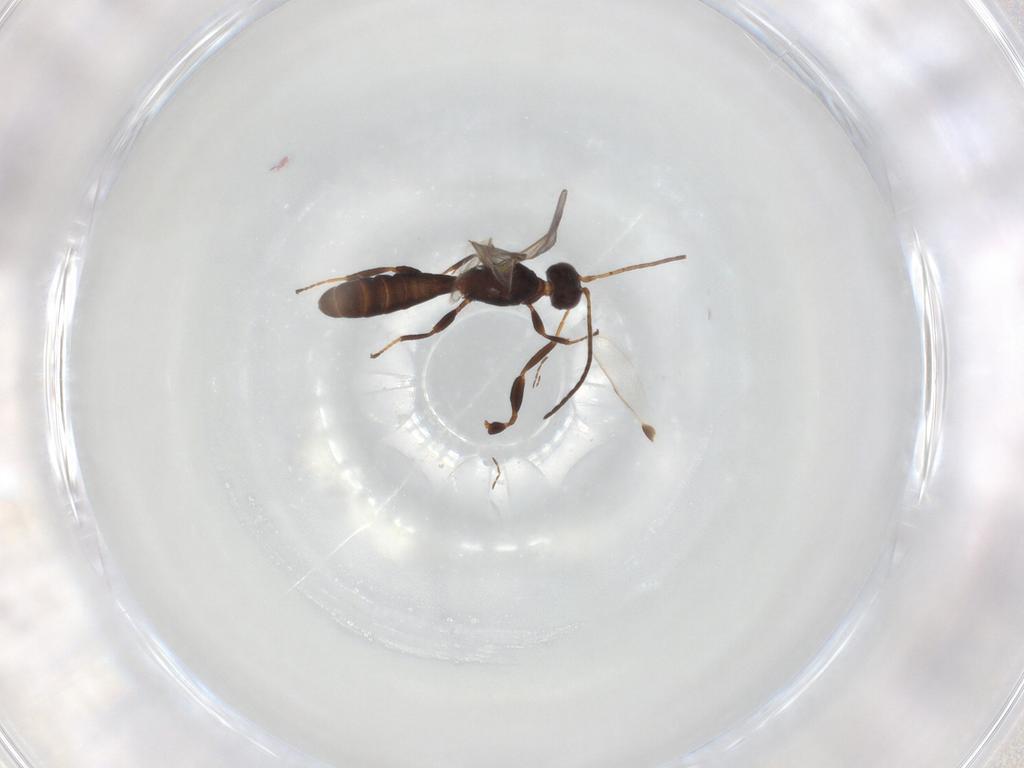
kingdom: Animalia
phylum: Arthropoda
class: Insecta
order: Hymenoptera
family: Braconidae
